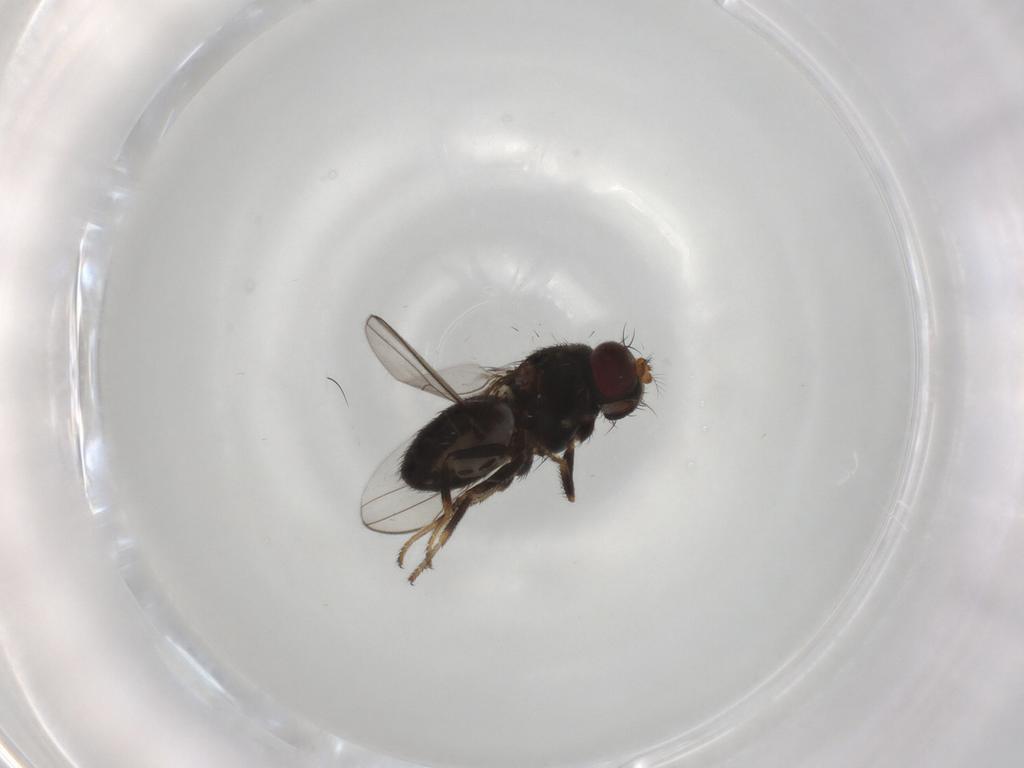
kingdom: Animalia
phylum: Arthropoda
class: Insecta
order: Diptera
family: Ephydridae
